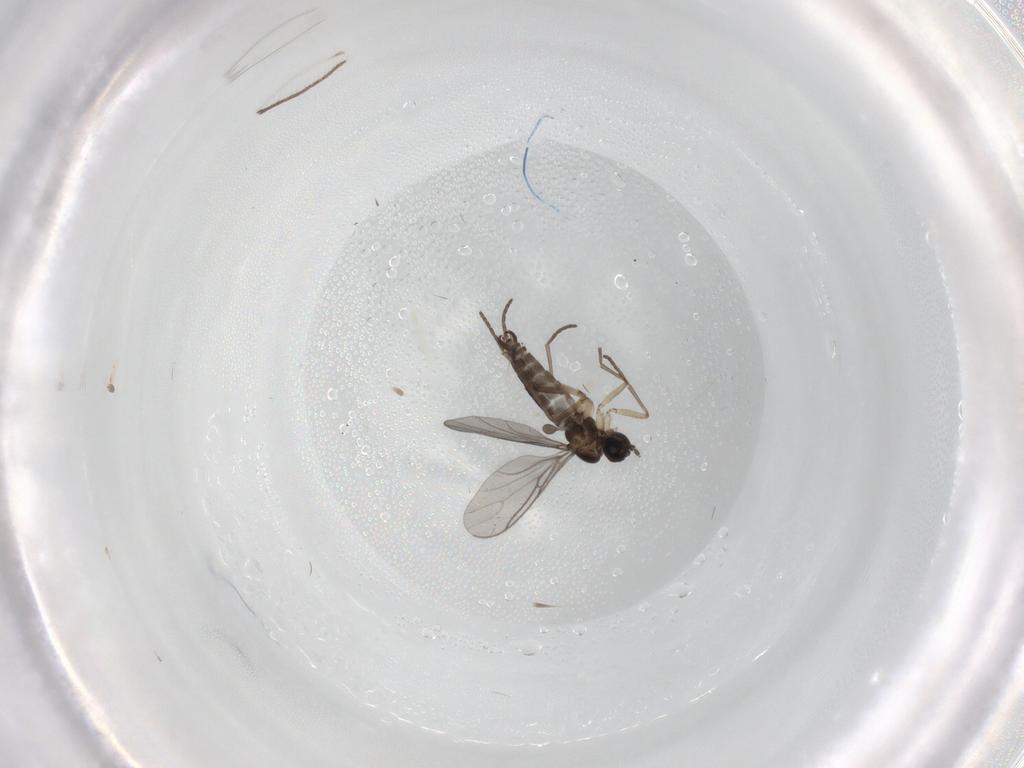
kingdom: Animalia
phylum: Arthropoda
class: Insecta
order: Diptera
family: Sciaridae
